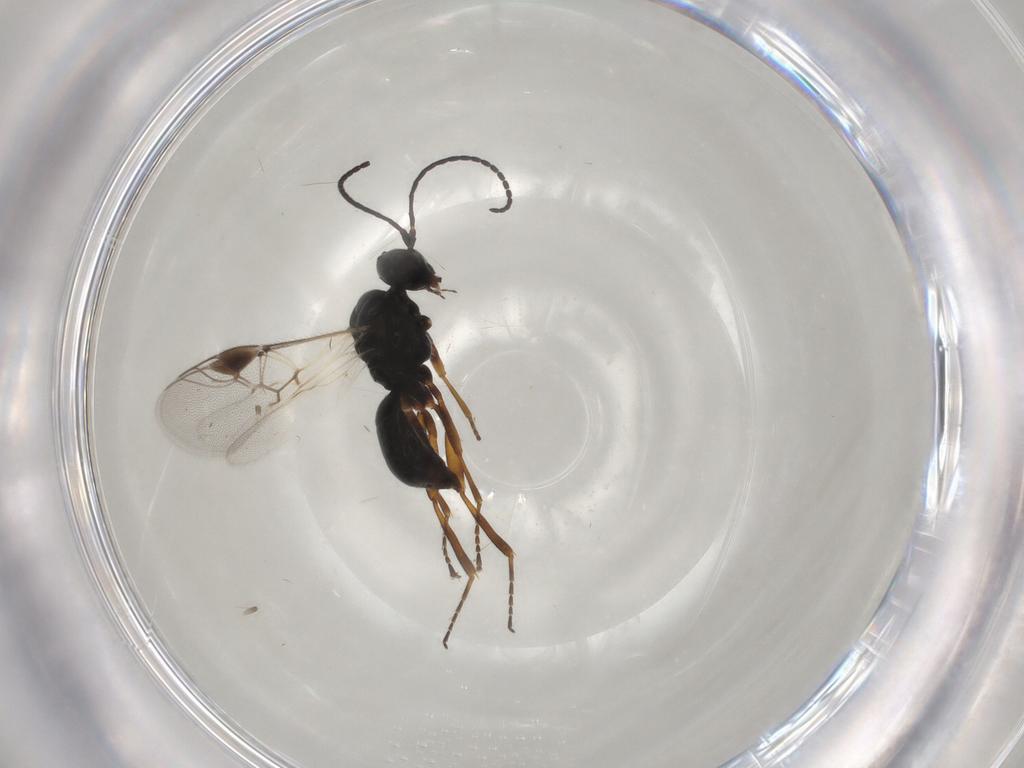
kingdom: Animalia
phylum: Arthropoda
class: Insecta
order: Hymenoptera
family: Braconidae
